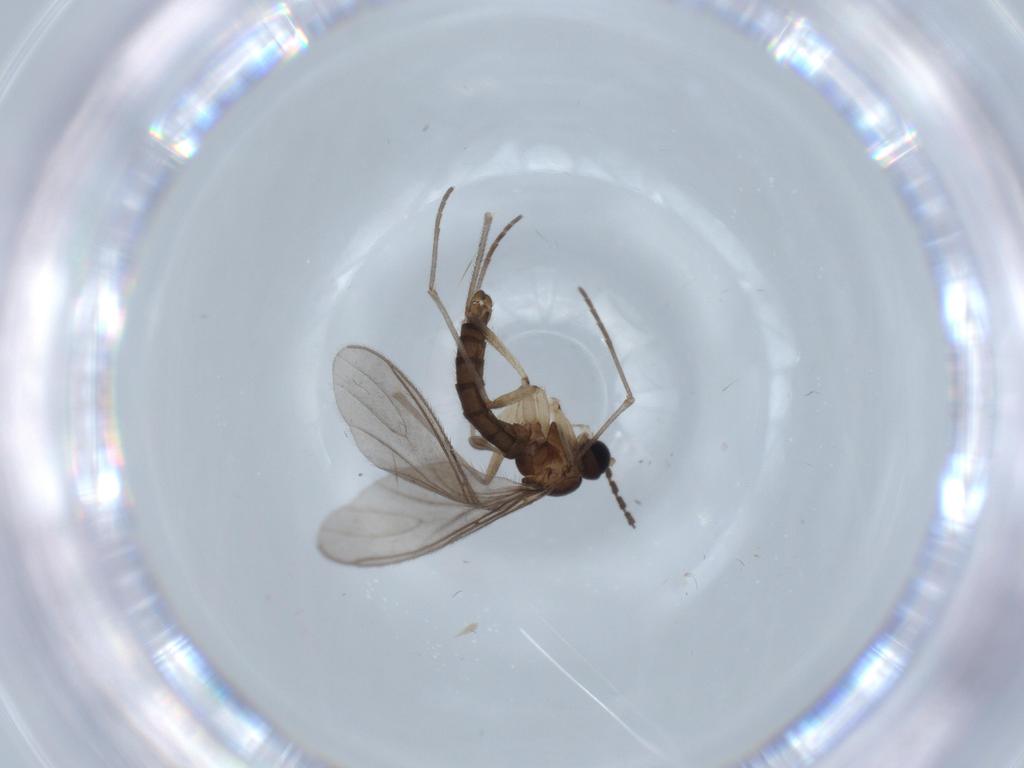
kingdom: Animalia
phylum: Arthropoda
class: Insecta
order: Diptera
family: Sciaridae
